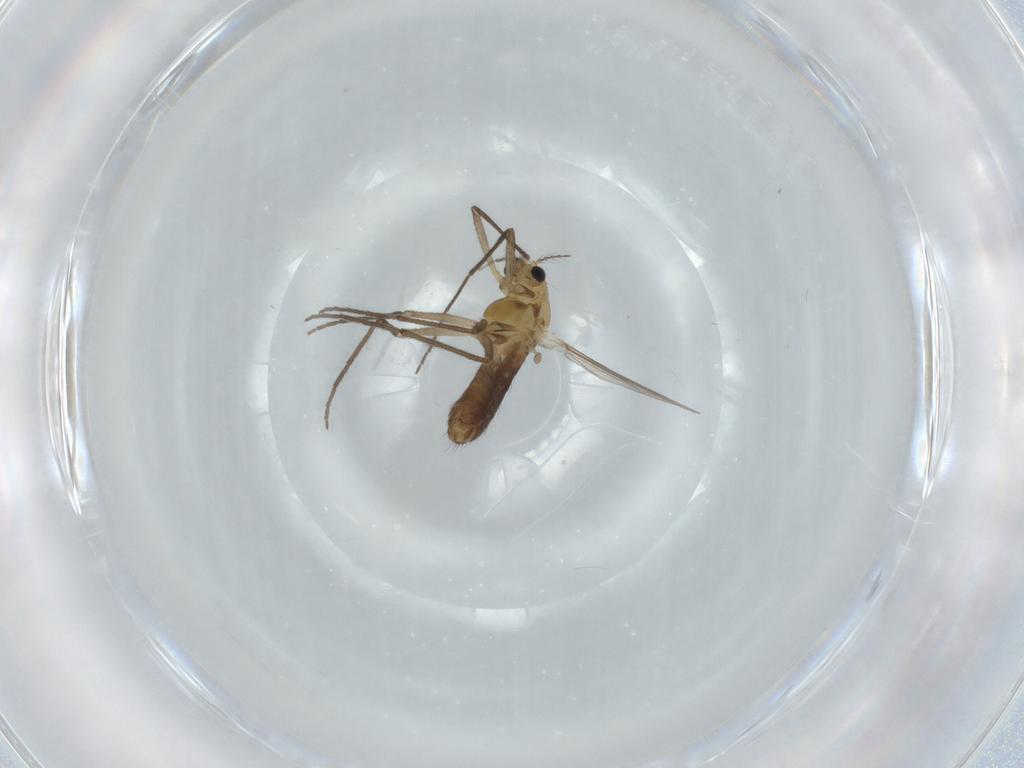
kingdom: Animalia
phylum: Arthropoda
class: Insecta
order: Diptera
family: Chironomidae
